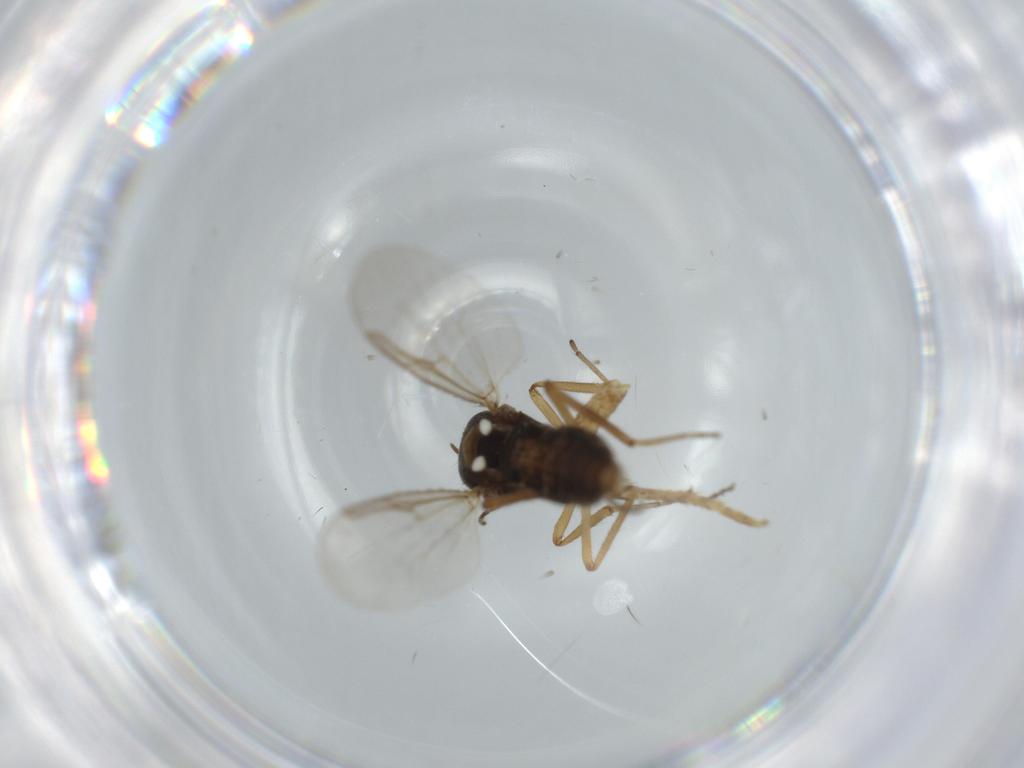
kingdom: Animalia
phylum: Arthropoda
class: Insecta
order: Diptera
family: Ceratopogonidae
